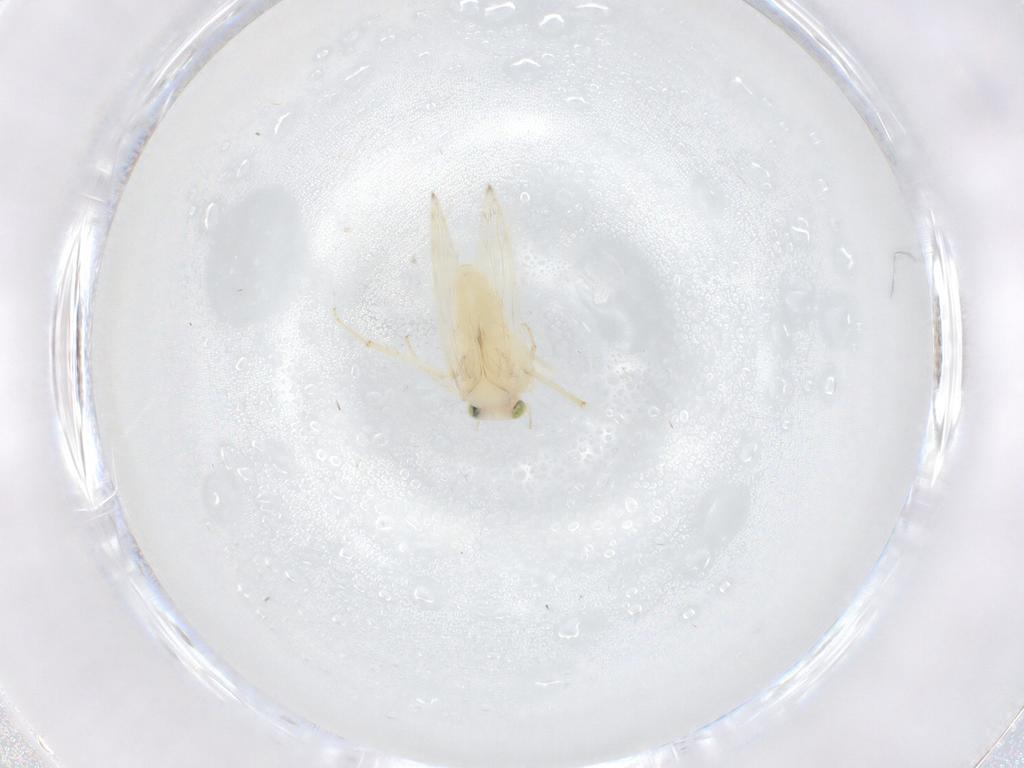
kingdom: Animalia
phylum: Arthropoda
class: Insecta
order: Psocodea
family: Lepidopsocidae
